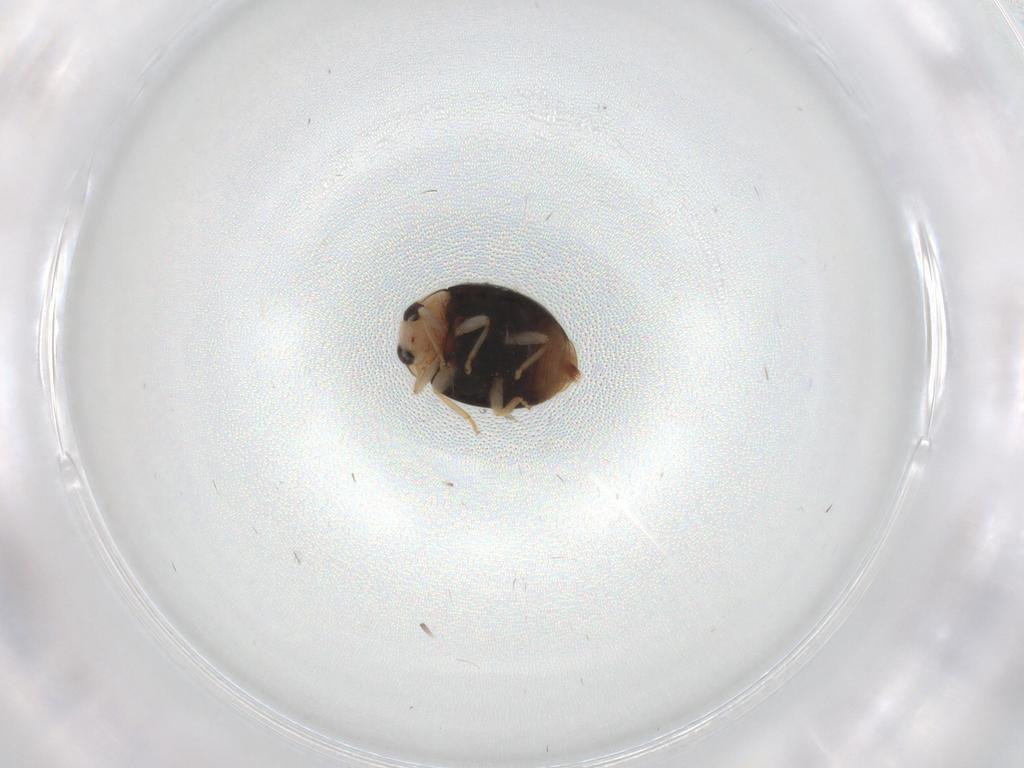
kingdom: Animalia
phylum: Arthropoda
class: Insecta
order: Coleoptera
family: Coccinellidae
